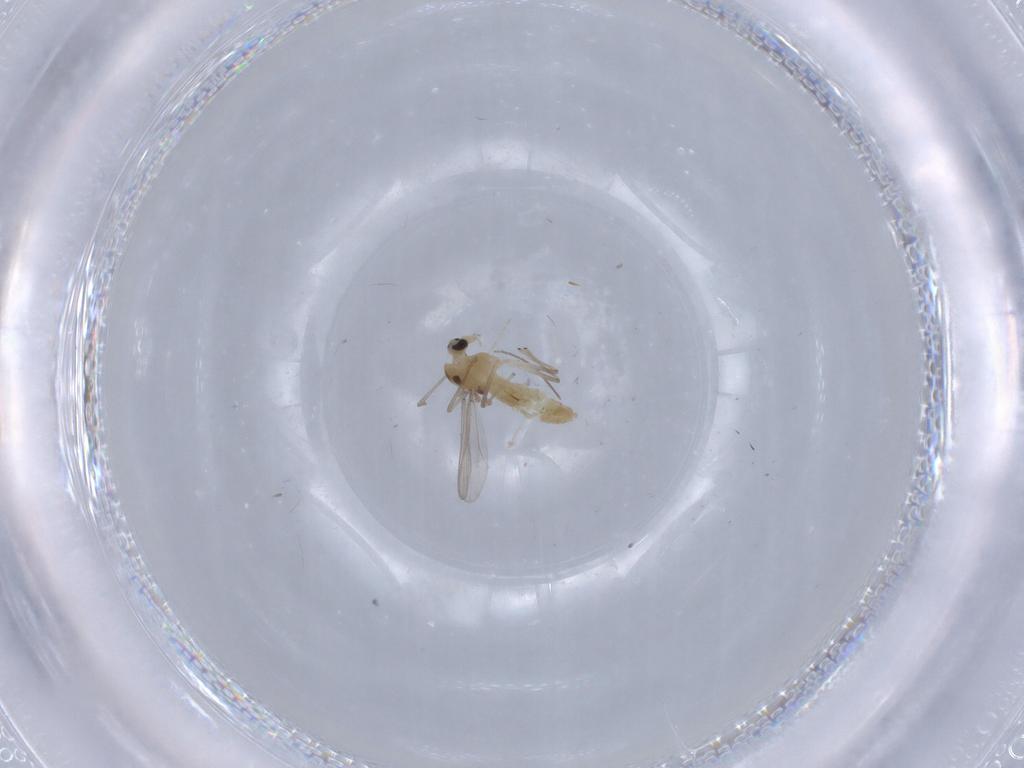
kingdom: Animalia
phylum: Arthropoda
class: Insecta
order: Diptera
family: Chironomidae
